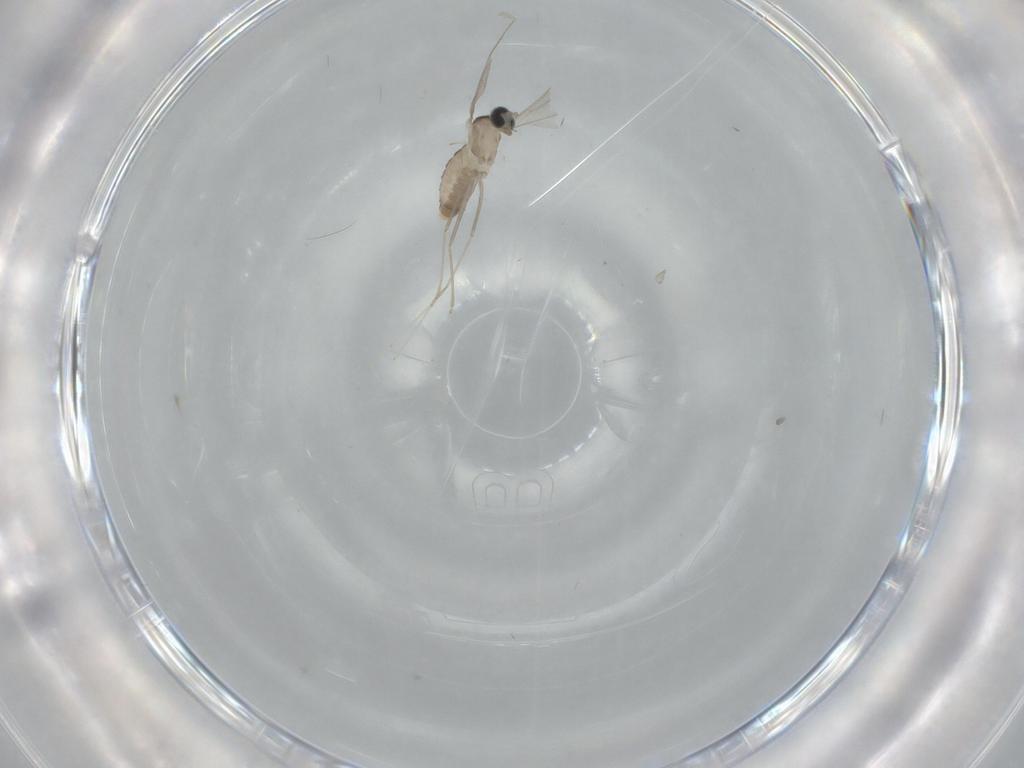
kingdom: Animalia
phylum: Arthropoda
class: Insecta
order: Diptera
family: Cecidomyiidae
